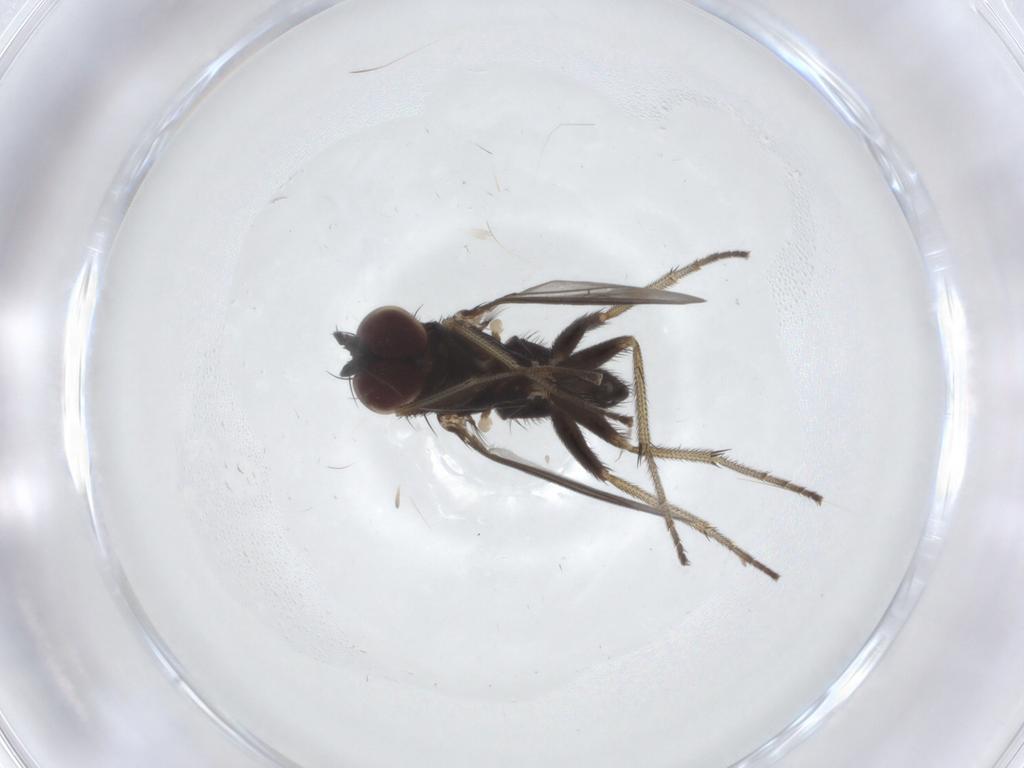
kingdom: Animalia
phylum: Arthropoda
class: Insecta
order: Diptera
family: Dolichopodidae
